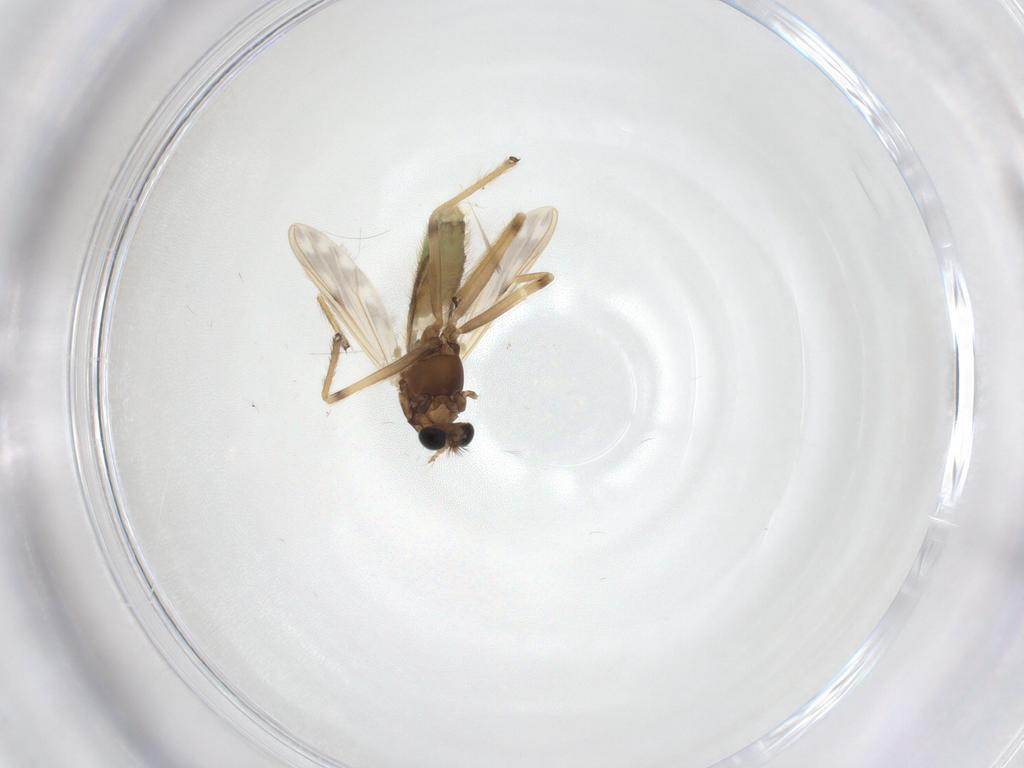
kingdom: Animalia
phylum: Arthropoda
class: Insecta
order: Diptera
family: Chironomidae
